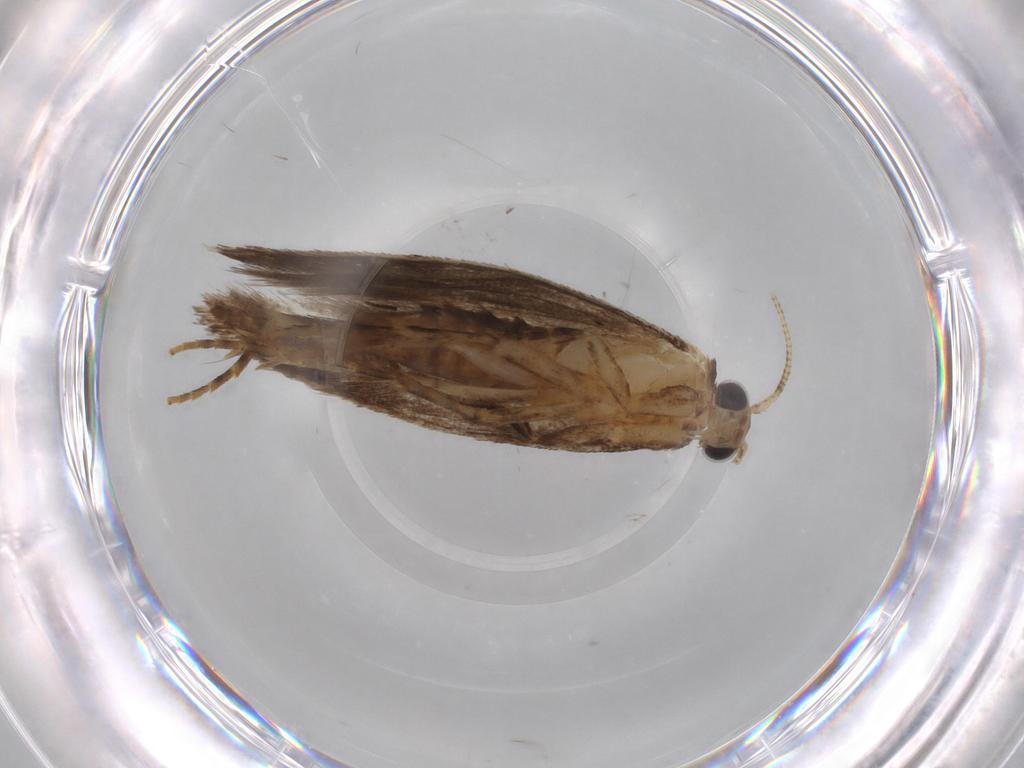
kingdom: Animalia
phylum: Arthropoda
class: Insecta
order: Lepidoptera
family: Tineidae
